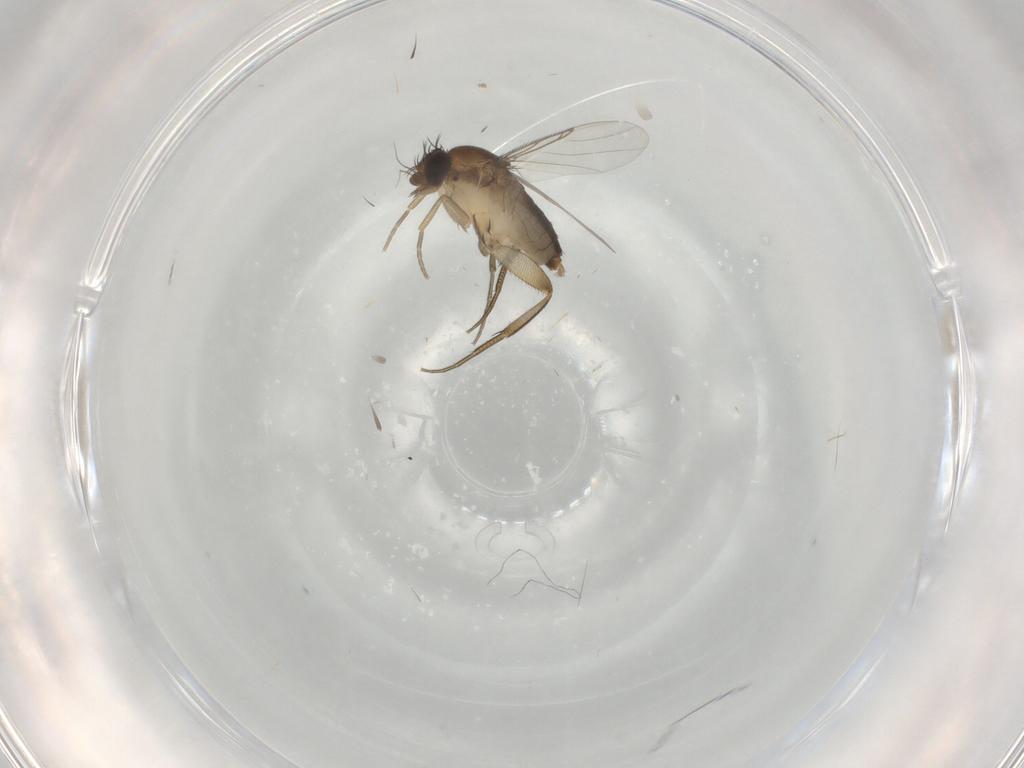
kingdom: Animalia
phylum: Arthropoda
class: Insecta
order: Diptera
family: Phoridae
